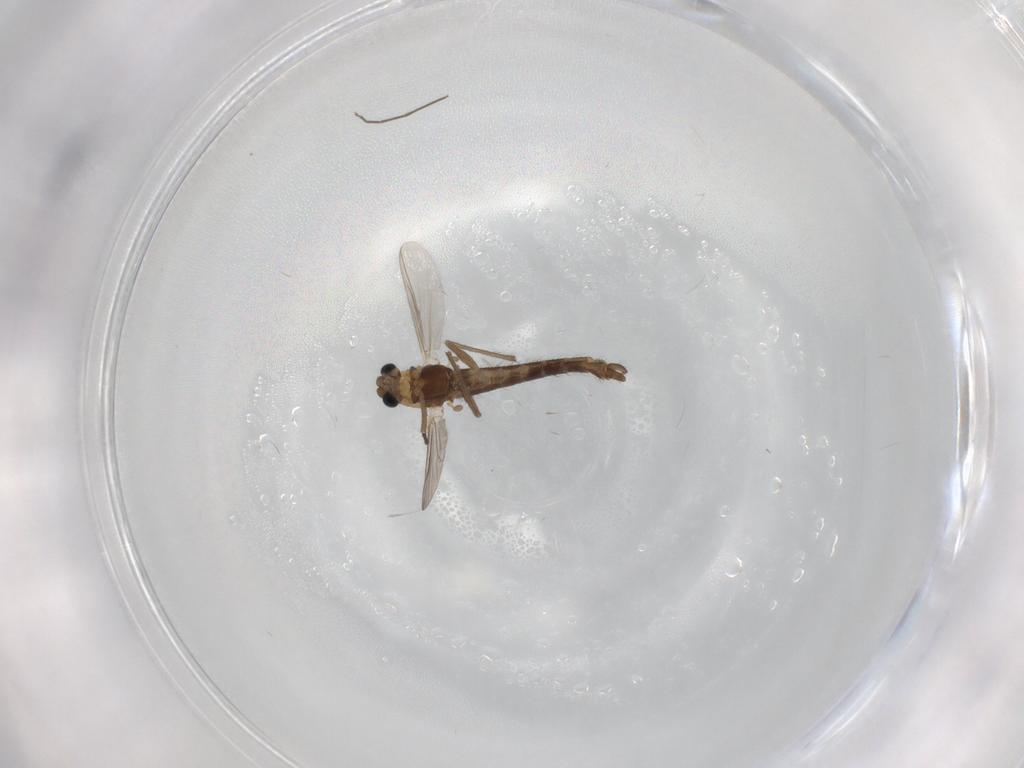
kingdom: Animalia
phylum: Arthropoda
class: Insecta
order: Diptera
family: Chironomidae
